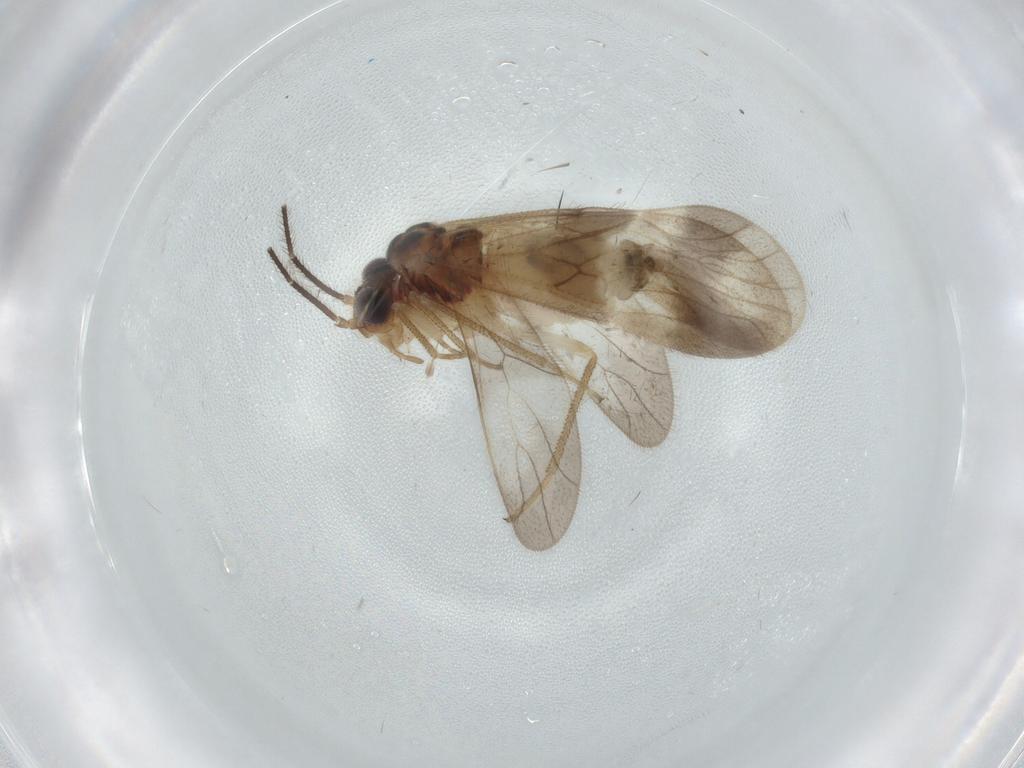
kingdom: Animalia
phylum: Arthropoda
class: Insecta
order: Psocodea
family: Amphipsocidae
